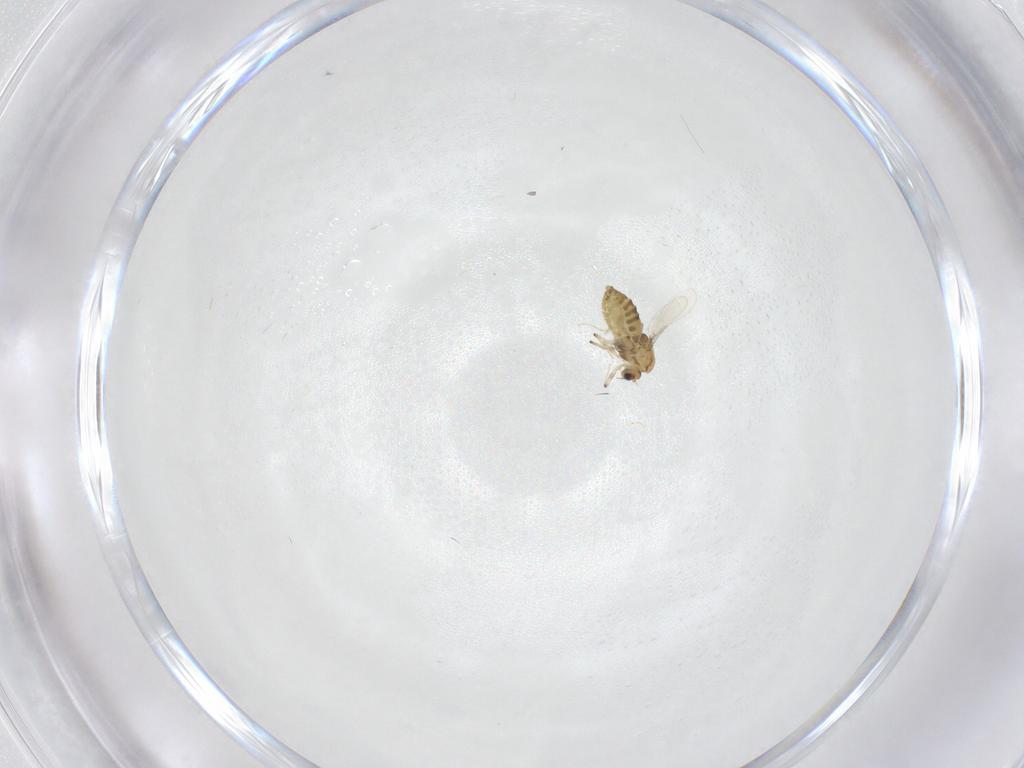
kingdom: Animalia
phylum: Arthropoda
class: Insecta
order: Diptera
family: Chironomidae
